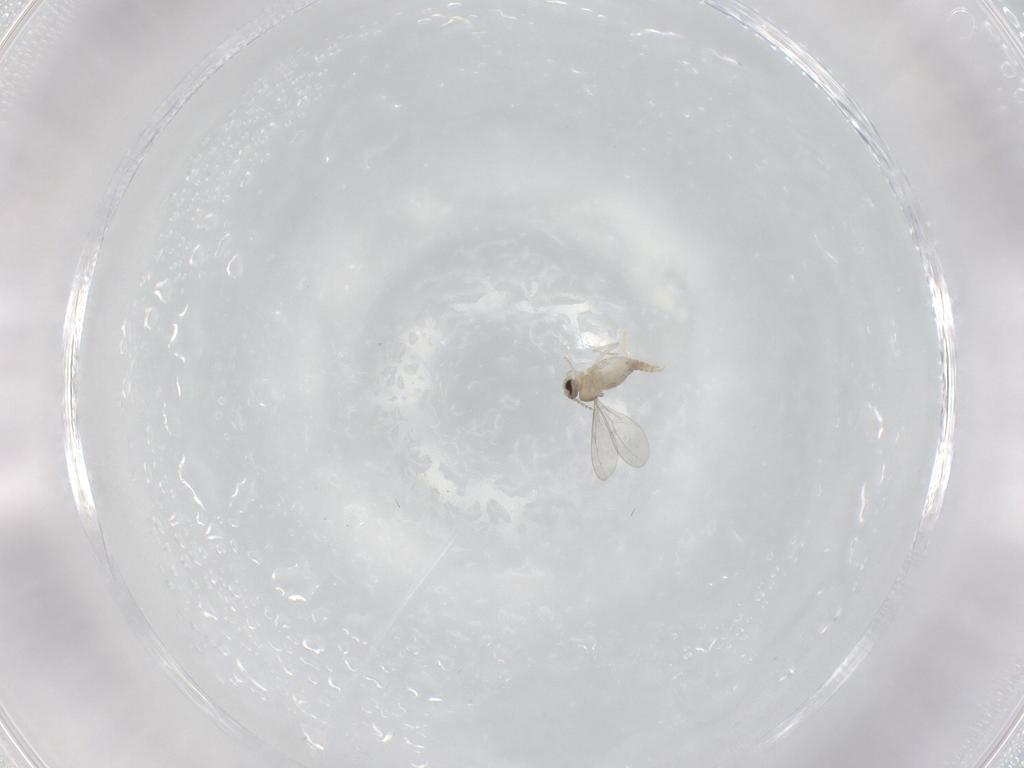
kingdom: Animalia
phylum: Arthropoda
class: Insecta
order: Diptera
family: Cecidomyiidae
